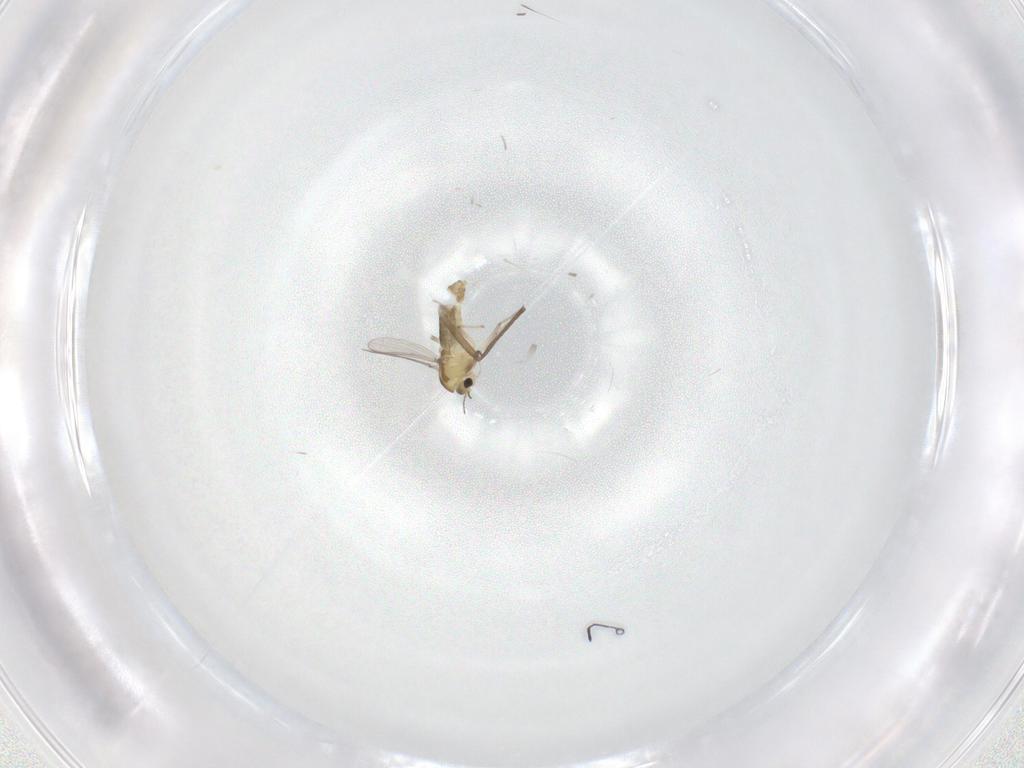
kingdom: Animalia
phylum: Arthropoda
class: Insecta
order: Diptera
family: Chironomidae
